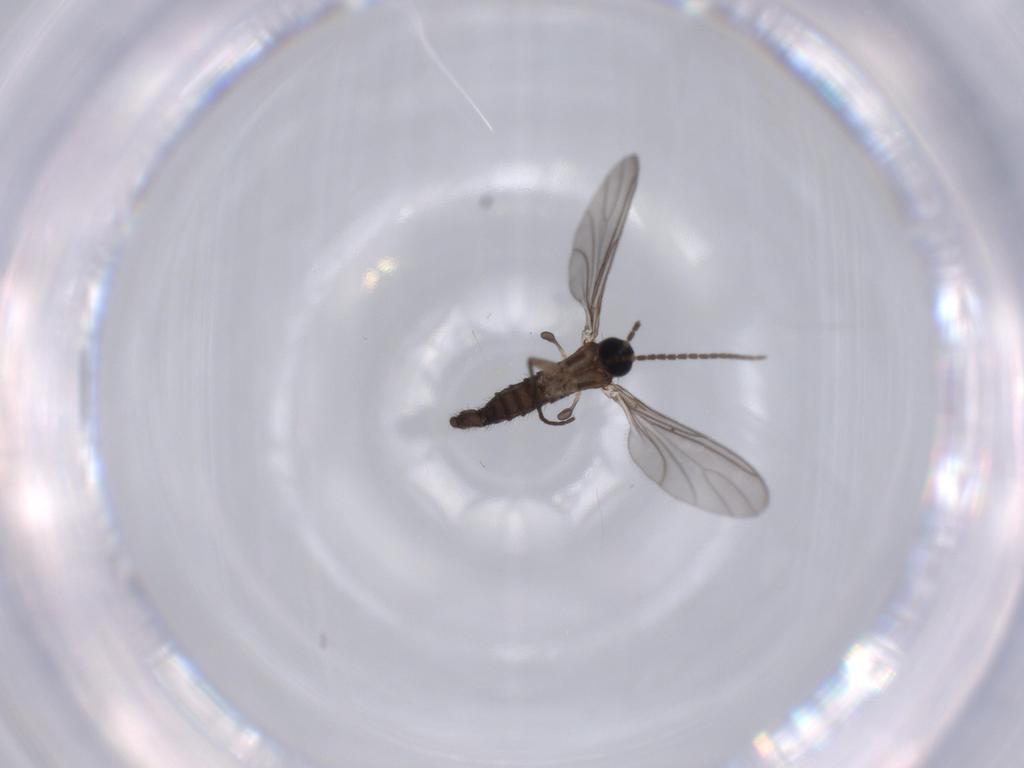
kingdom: Animalia
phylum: Arthropoda
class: Insecta
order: Diptera
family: Sciaridae
